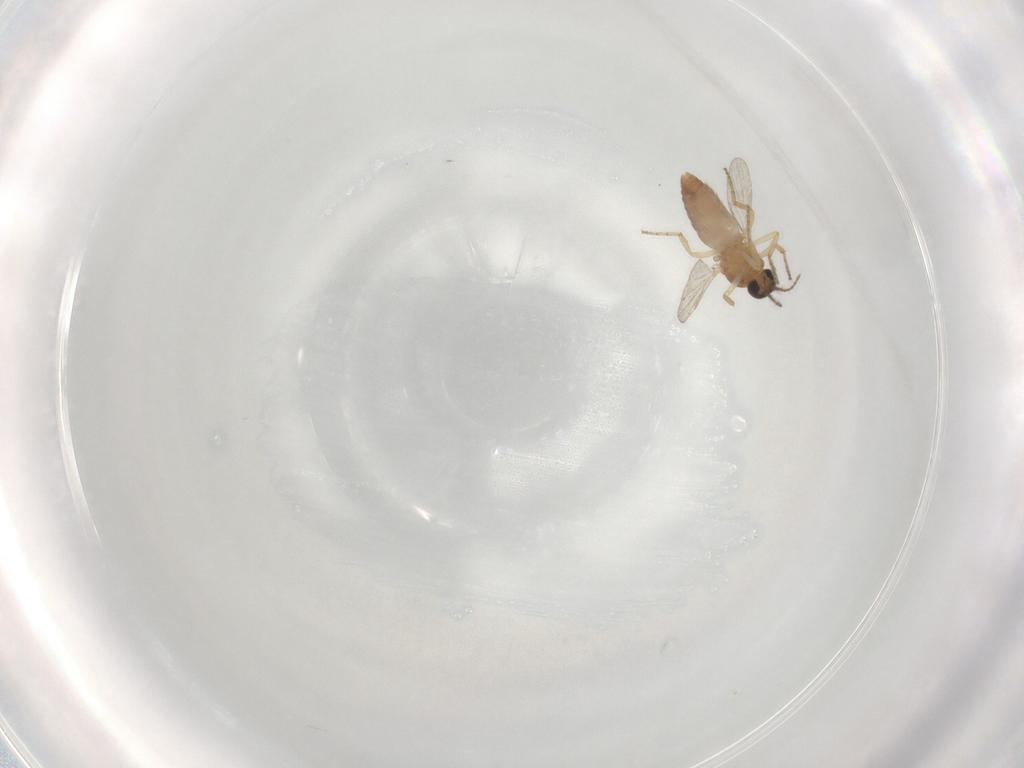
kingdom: Animalia
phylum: Arthropoda
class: Insecta
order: Diptera
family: Ceratopogonidae
